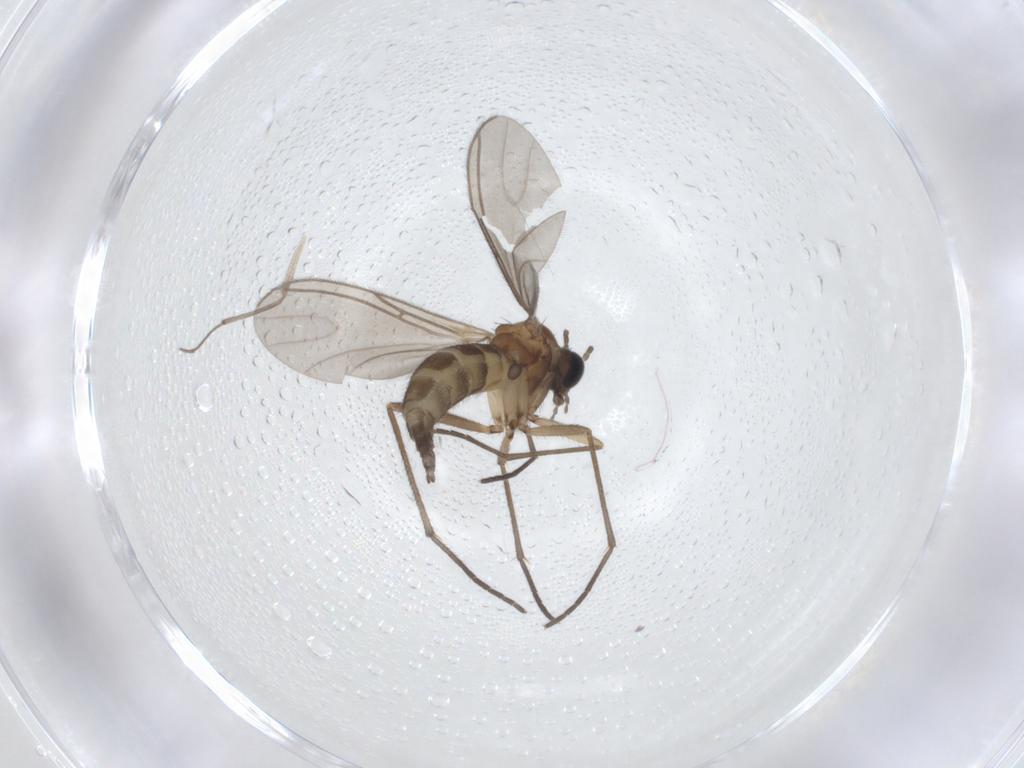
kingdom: Animalia
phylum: Arthropoda
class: Insecta
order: Diptera
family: Sciaridae
